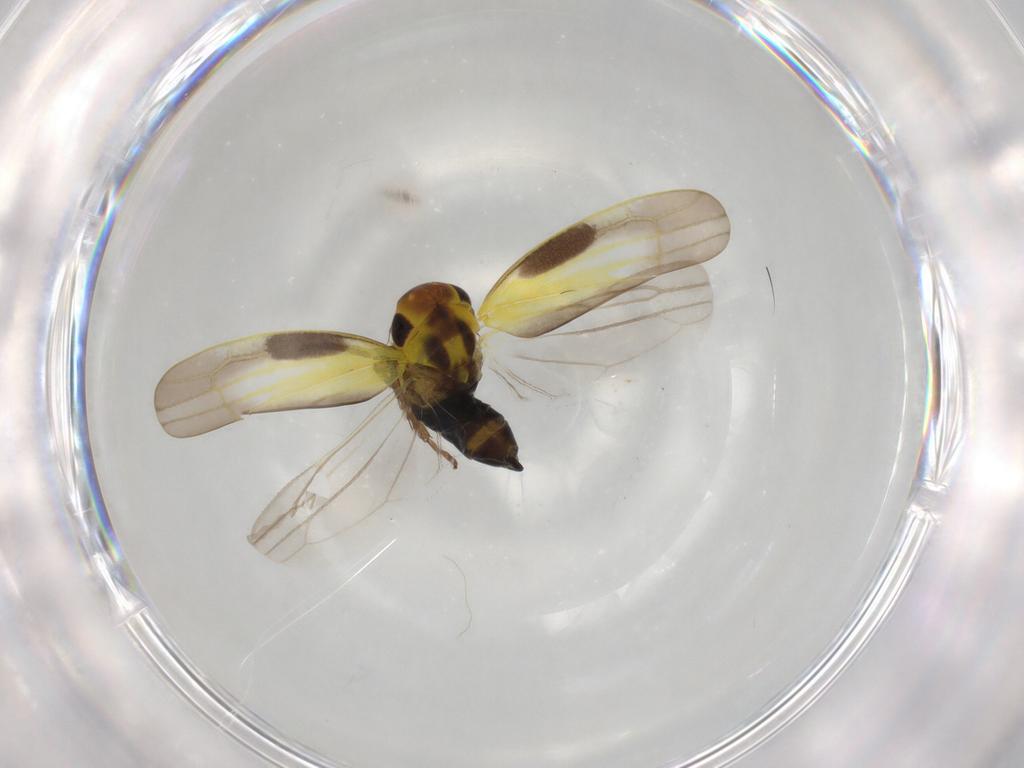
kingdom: Animalia
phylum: Arthropoda
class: Insecta
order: Hemiptera
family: Cicadellidae
